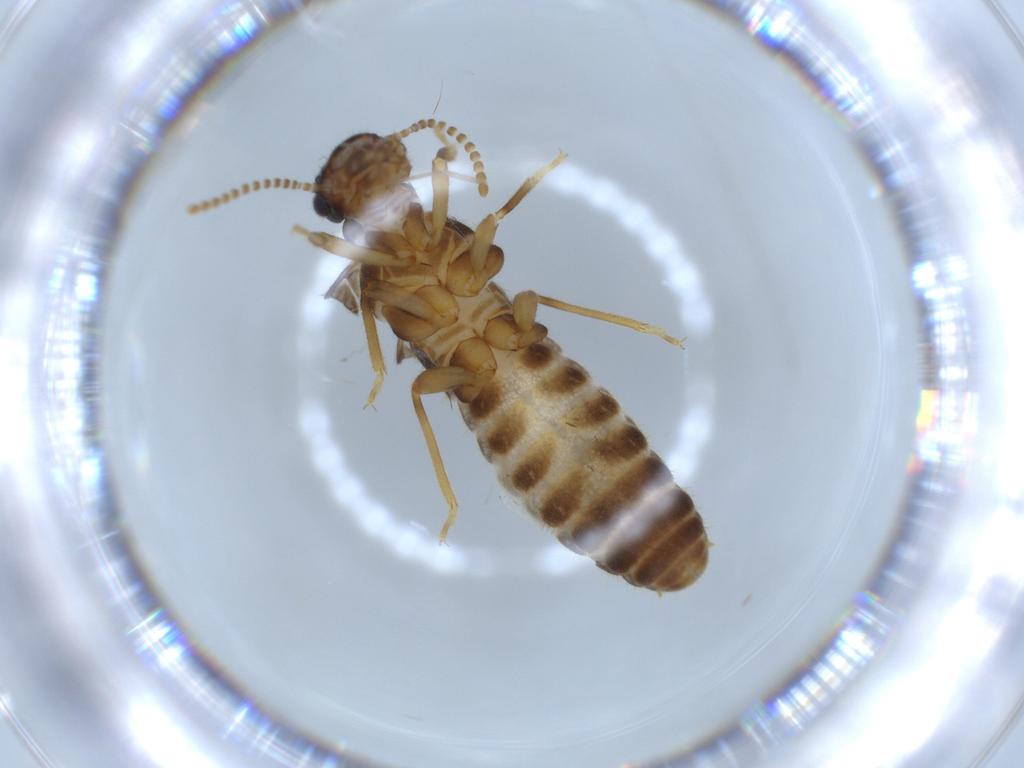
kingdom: Animalia
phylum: Arthropoda
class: Insecta
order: Blattodea
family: Termitidae
